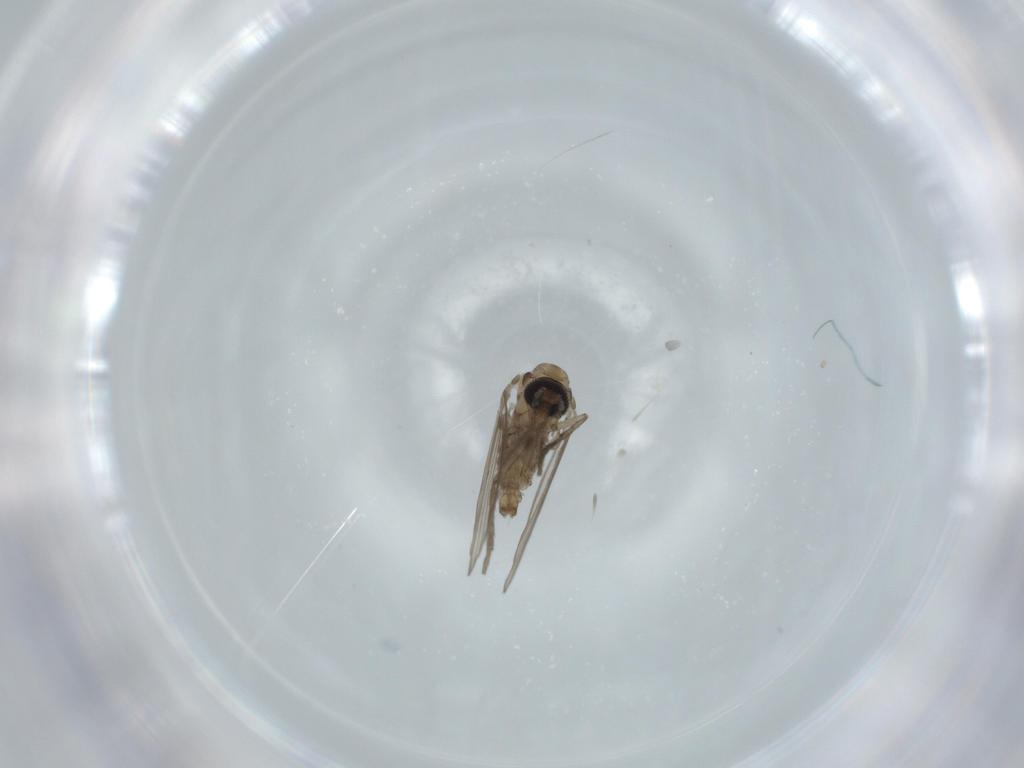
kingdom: Animalia
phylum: Arthropoda
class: Insecta
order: Diptera
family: Psychodidae
